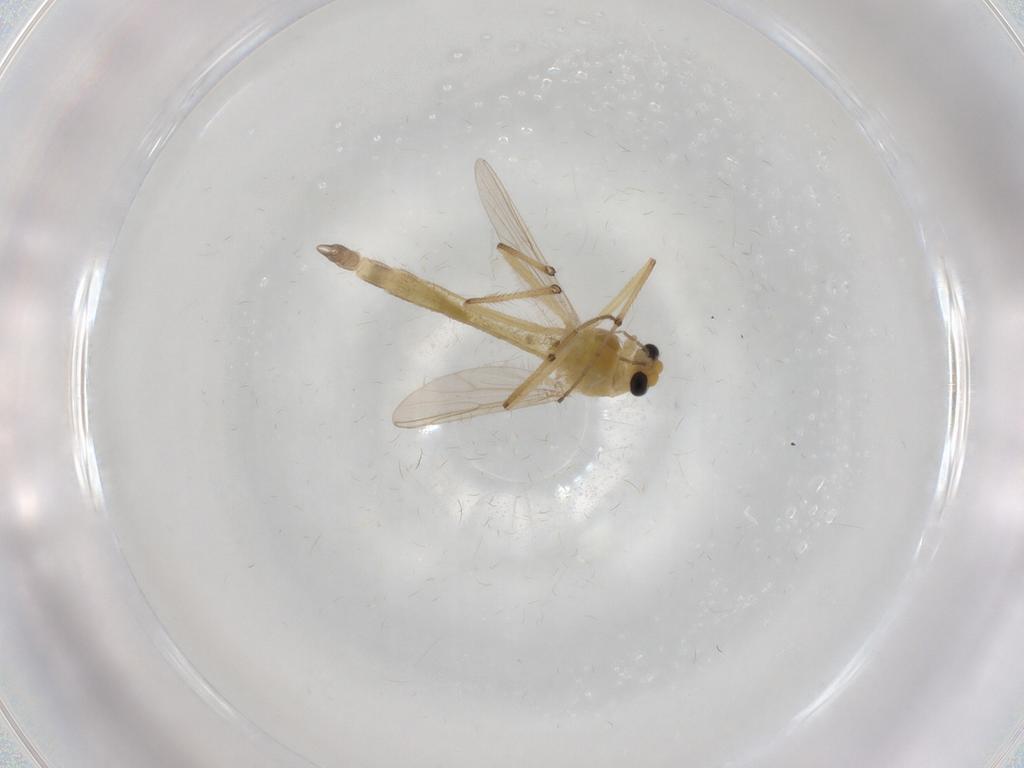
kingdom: Animalia
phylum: Arthropoda
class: Insecta
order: Diptera
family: Chironomidae
